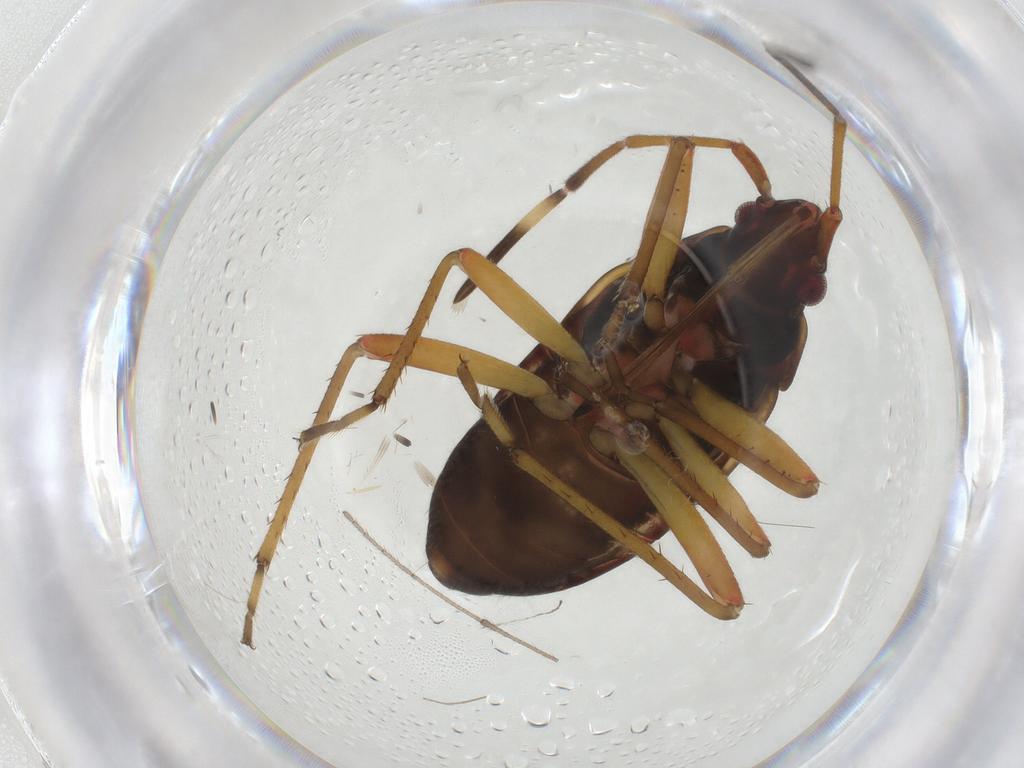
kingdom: Animalia
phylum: Arthropoda
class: Insecta
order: Hemiptera
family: Rhyparochromidae
